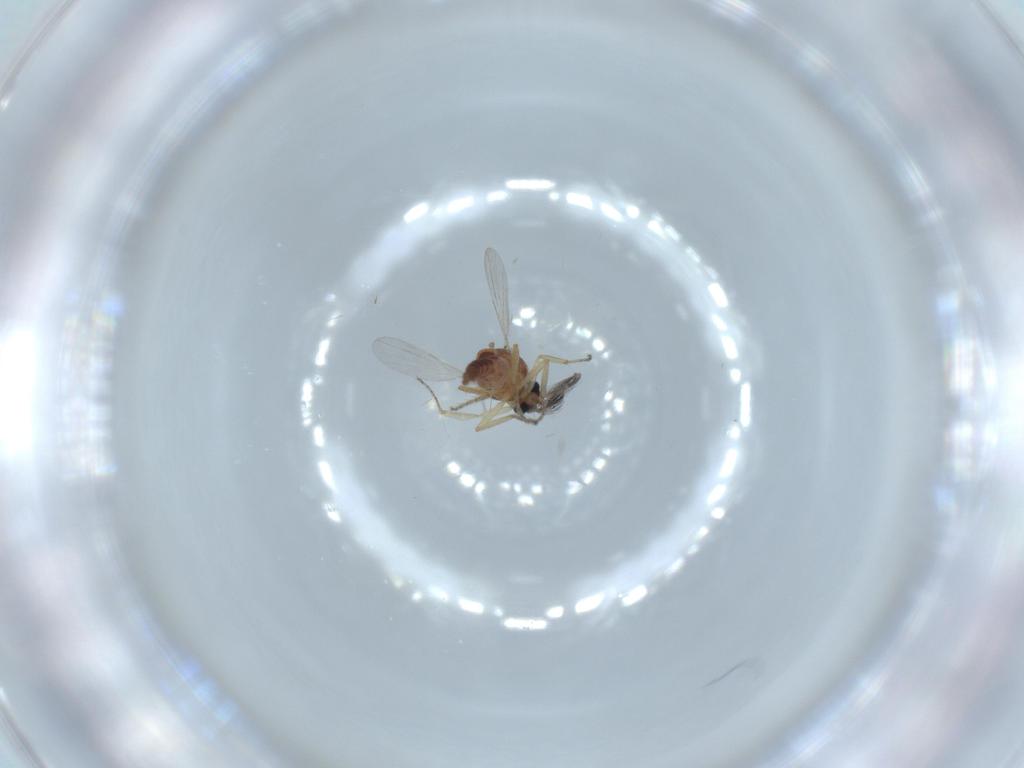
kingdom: Animalia
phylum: Arthropoda
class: Insecta
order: Diptera
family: Ceratopogonidae
